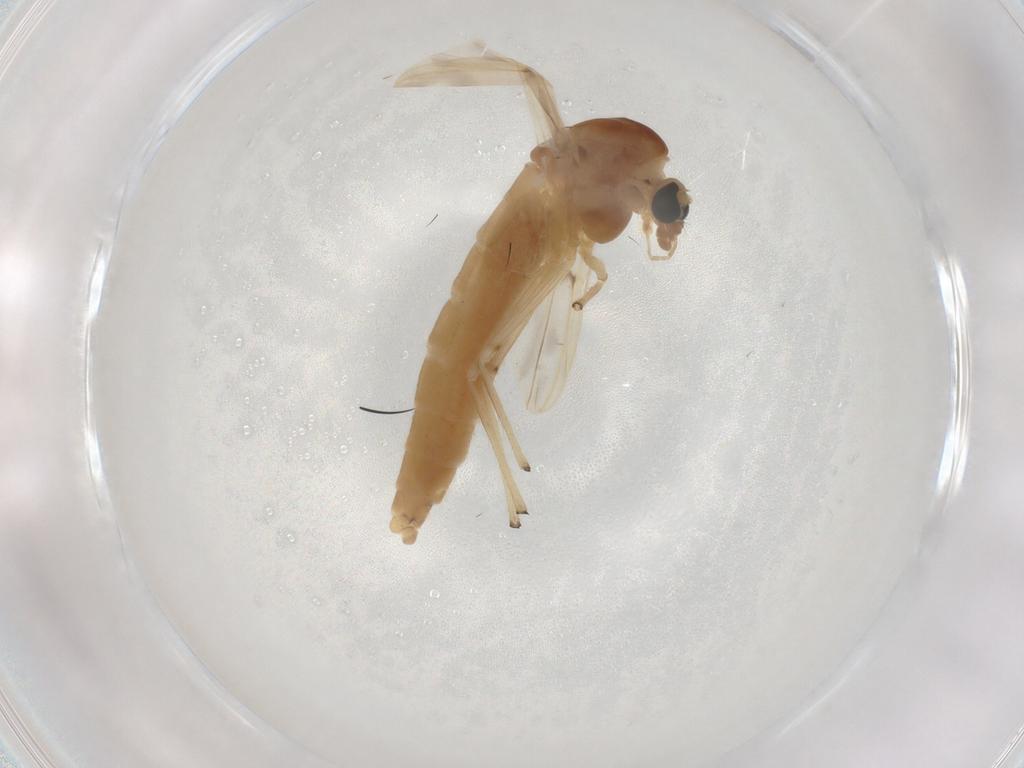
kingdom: Animalia
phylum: Arthropoda
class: Insecta
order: Diptera
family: Chironomidae
